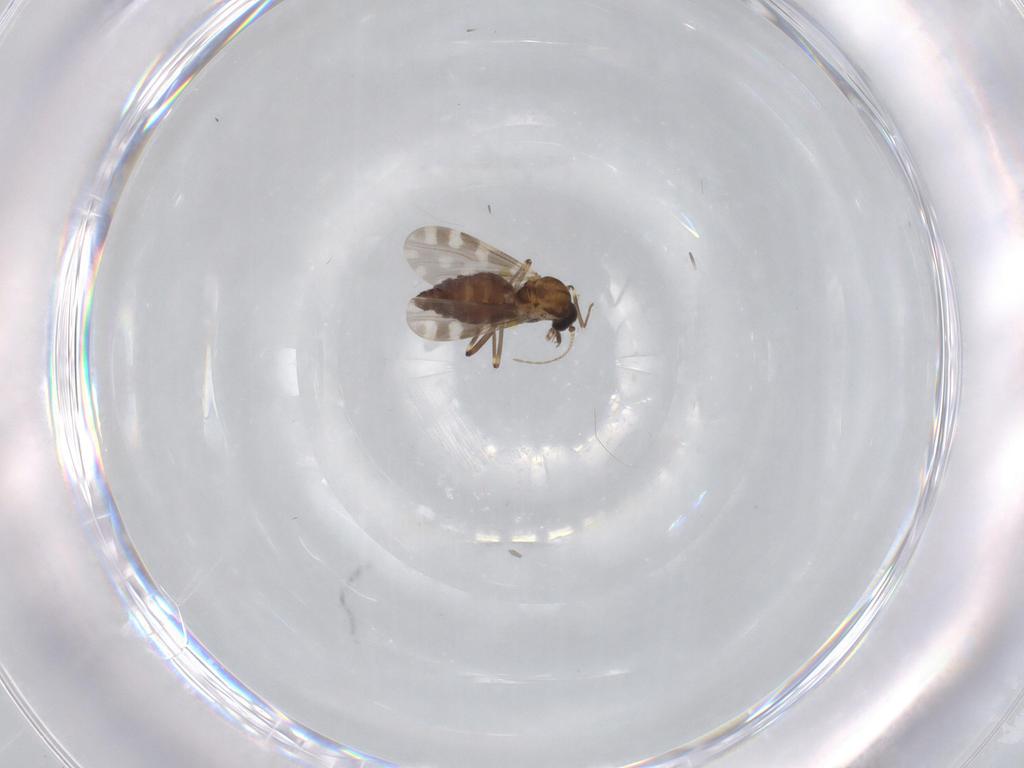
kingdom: Animalia
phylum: Arthropoda
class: Insecta
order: Diptera
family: Ceratopogonidae
